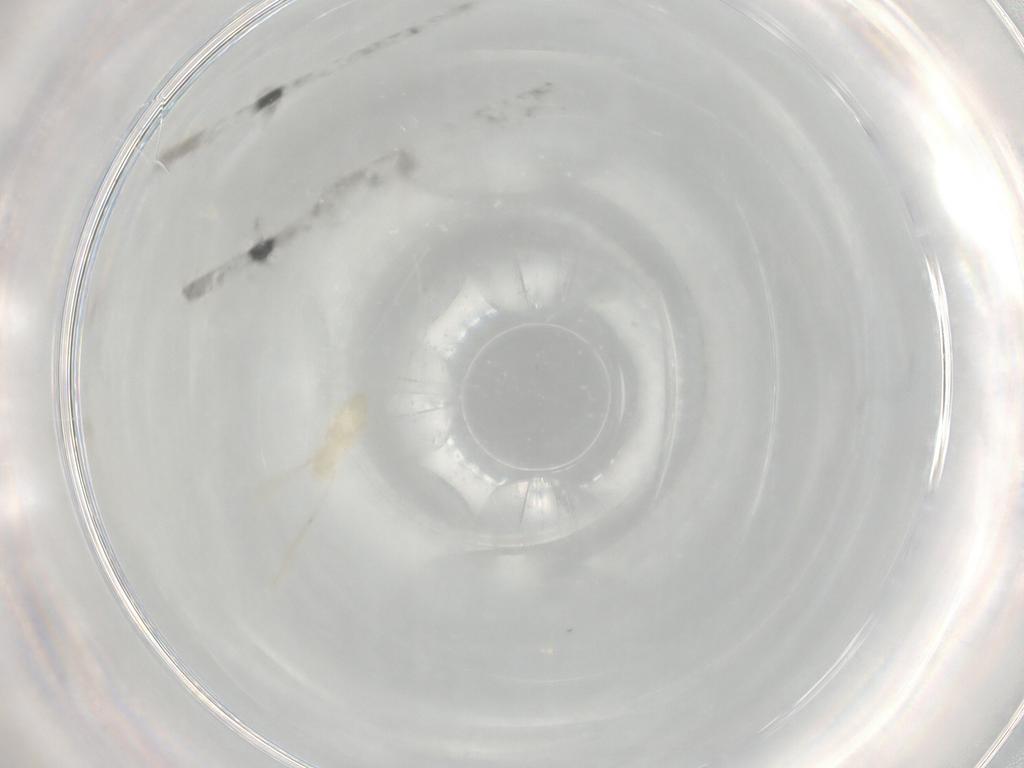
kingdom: Animalia
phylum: Arthropoda
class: Insecta
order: Diptera
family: Cecidomyiidae
